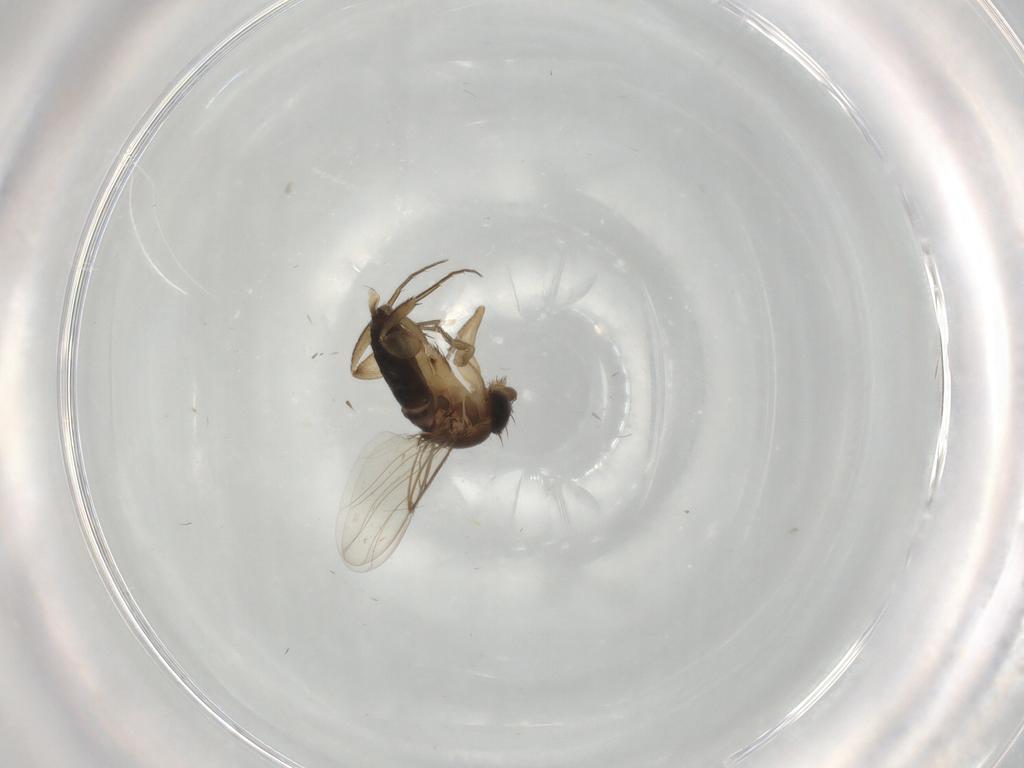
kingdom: Animalia
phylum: Arthropoda
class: Insecta
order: Diptera
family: Phoridae
